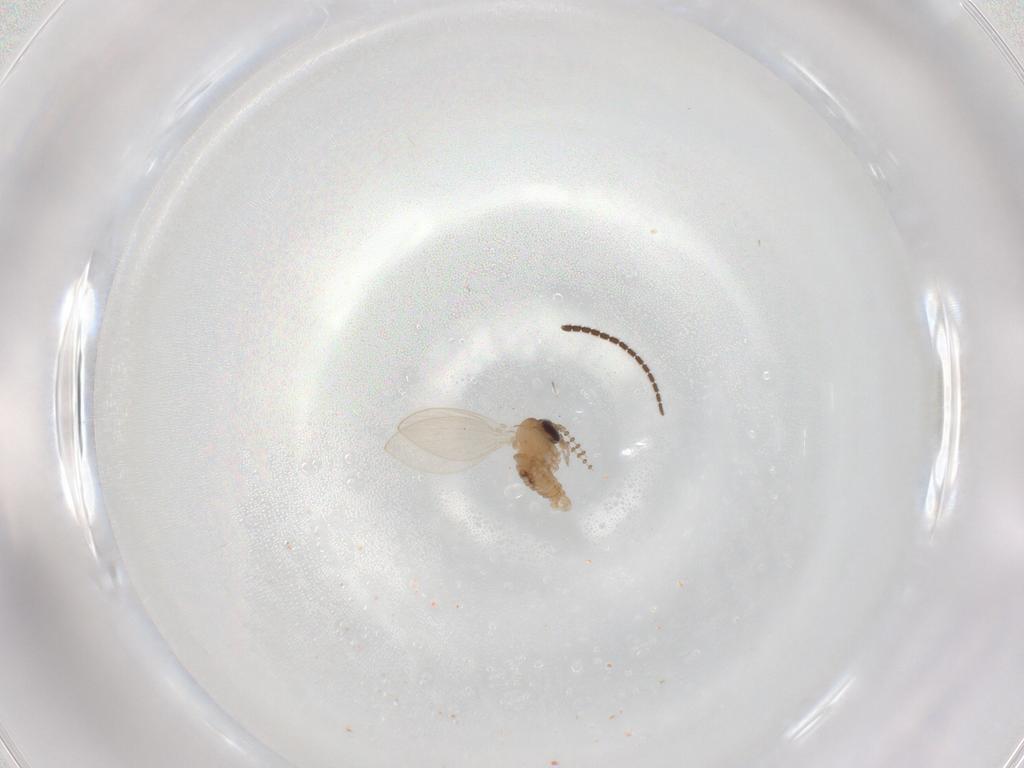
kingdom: Animalia
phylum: Arthropoda
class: Insecta
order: Diptera
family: Psychodidae
